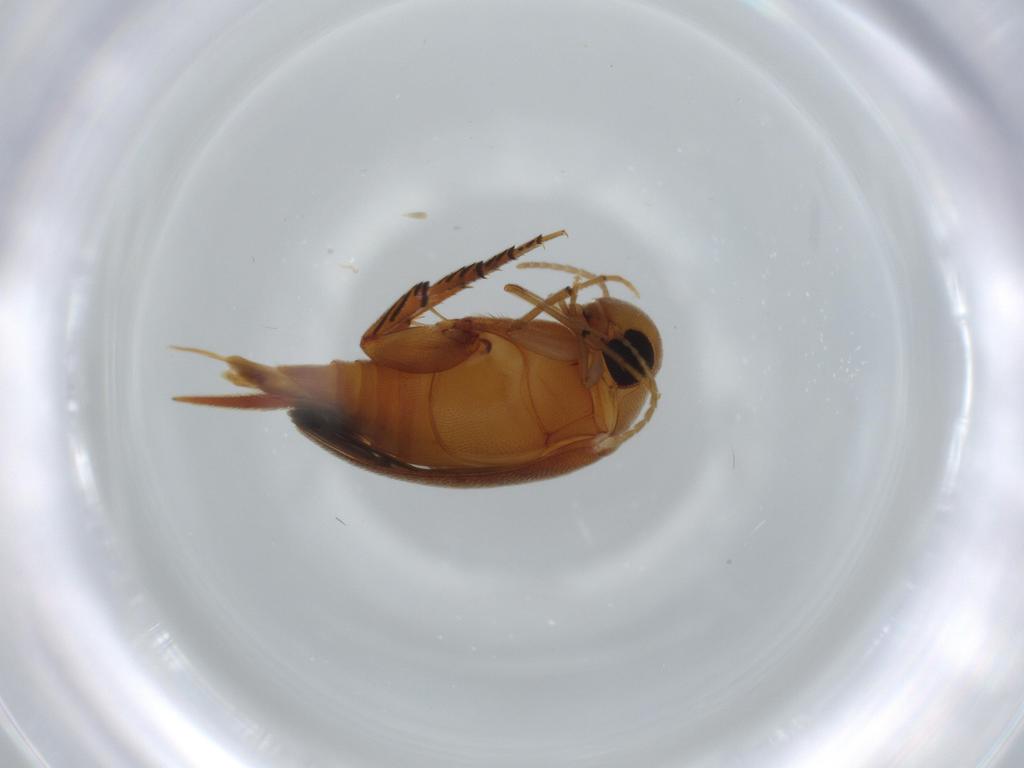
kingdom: Animalia
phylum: Arthropoda
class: Insecta
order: Coleoptera
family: Mordellidae
